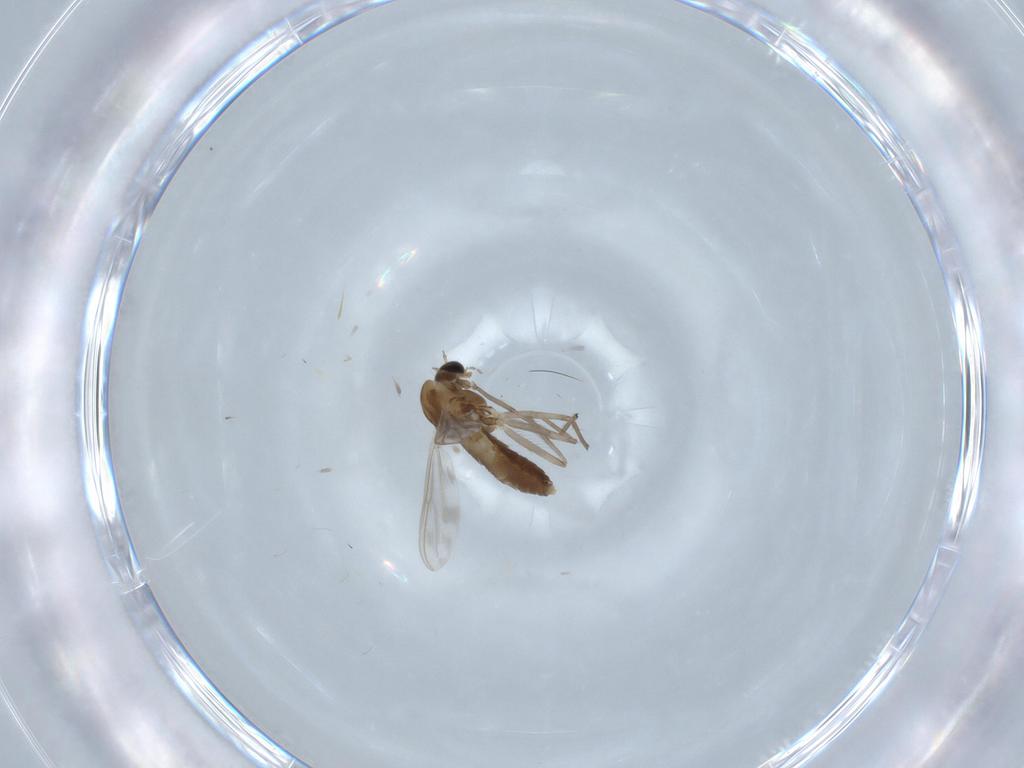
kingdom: Animalia
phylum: Arthropoda
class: Insecta
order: Diptera
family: Chironomidae
